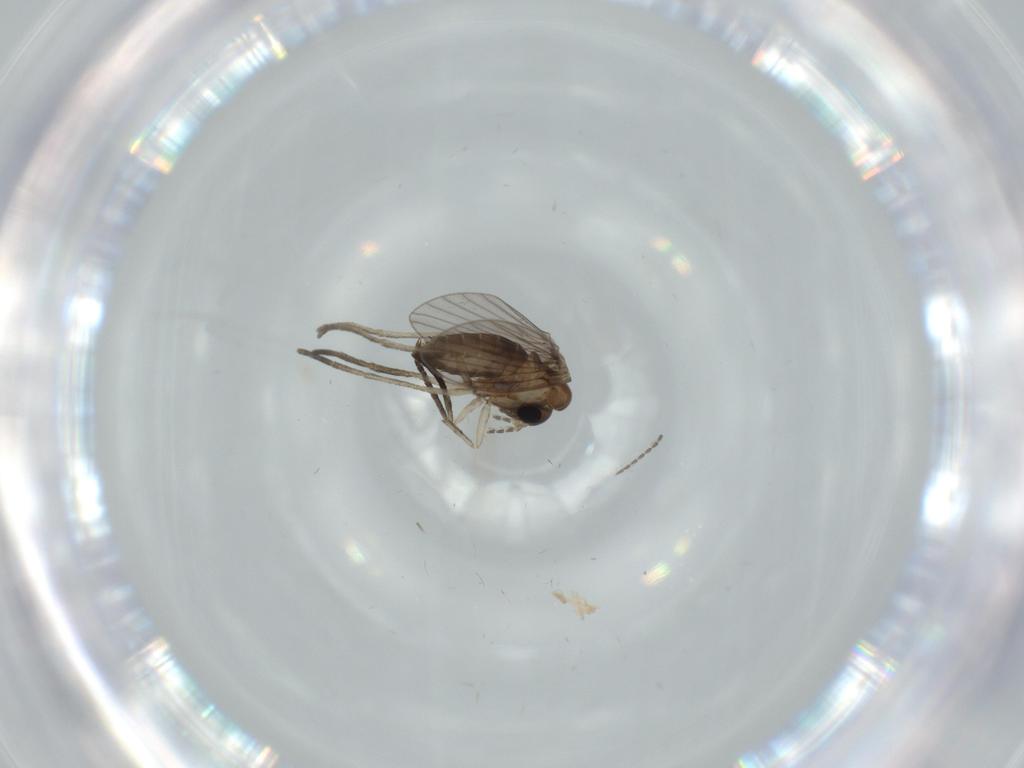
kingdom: Animalia
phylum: Arthropoda
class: Insecta
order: Diptera
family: Psychodidae
